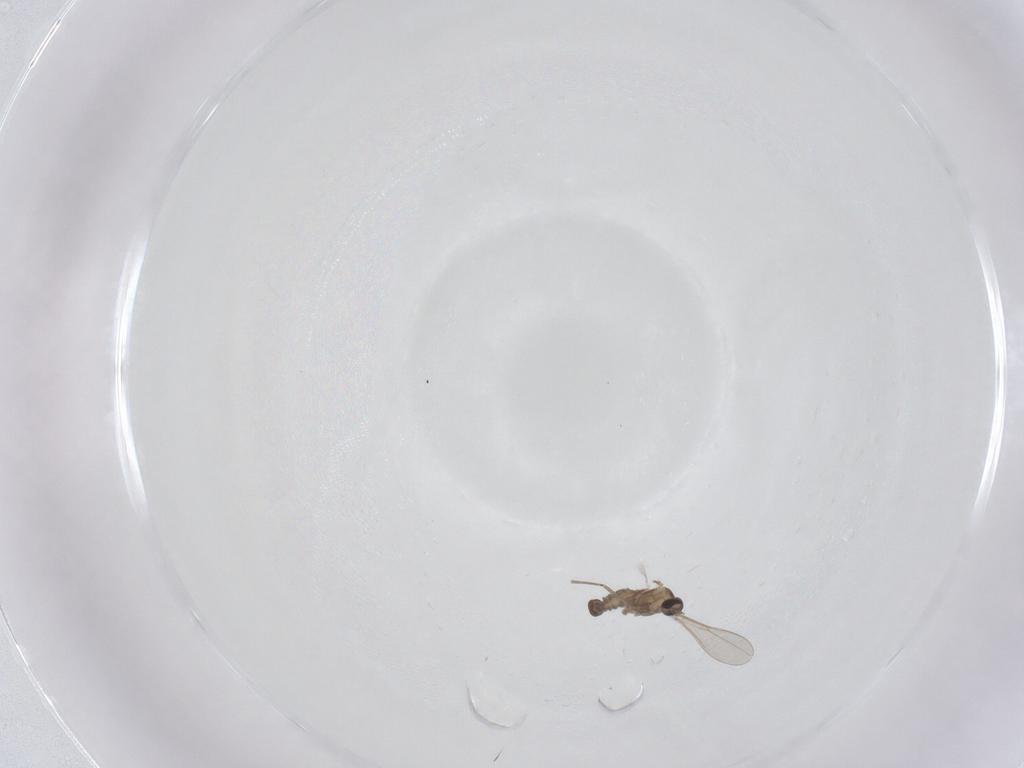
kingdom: Animalia
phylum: Arthropoda
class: Insecta
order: Diptera
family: Cecidomyiidae
